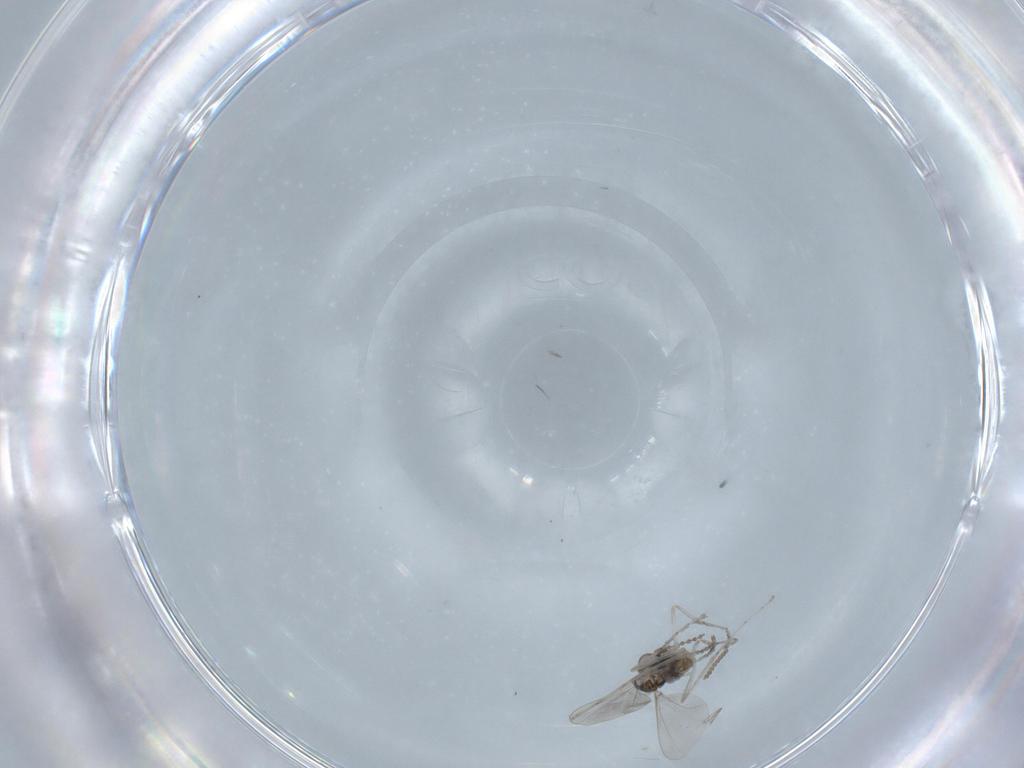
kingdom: Animalia
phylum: Arthropoda
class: Insecta
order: Diptera
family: Cecidomyiidae
